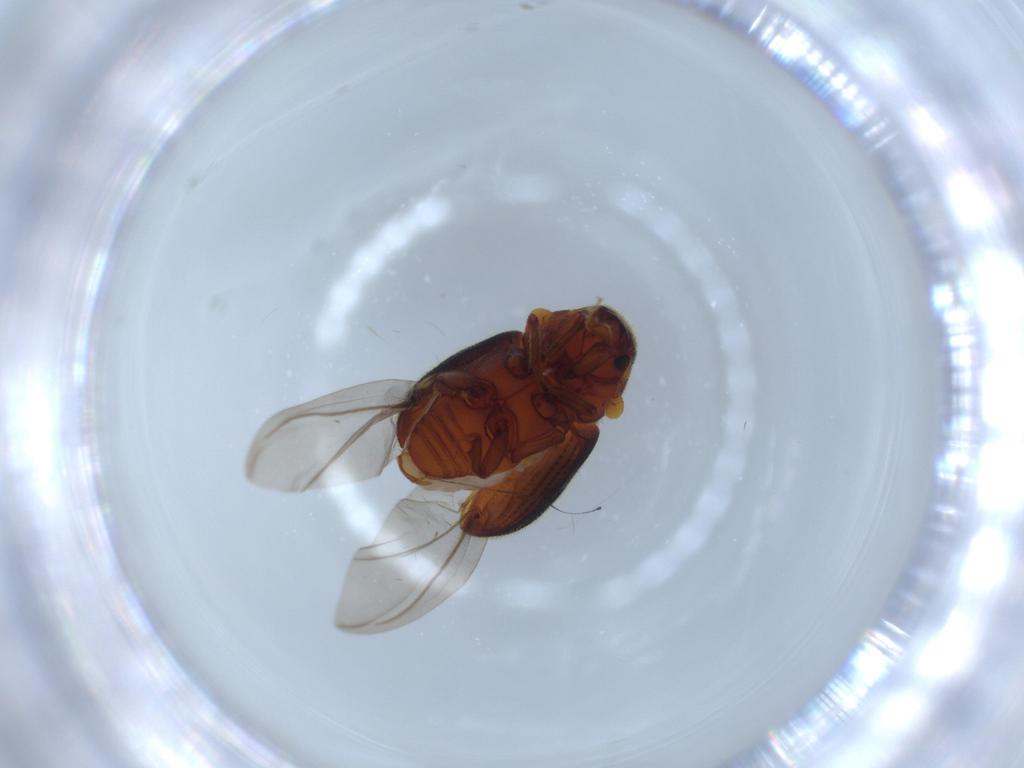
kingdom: Animalia
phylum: Arthropoda
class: Insecta
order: Coleoptera
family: Curculionidae
